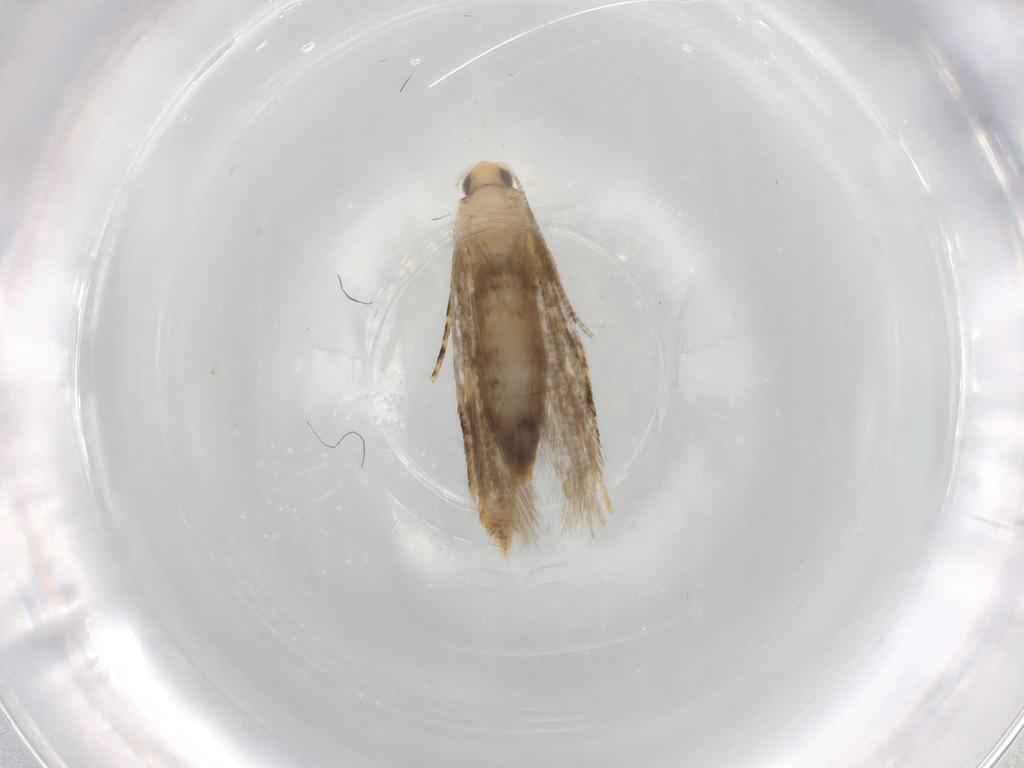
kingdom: Animalia
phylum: Arthropoda
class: Insecta
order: Lepidoptera
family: Tineidae
